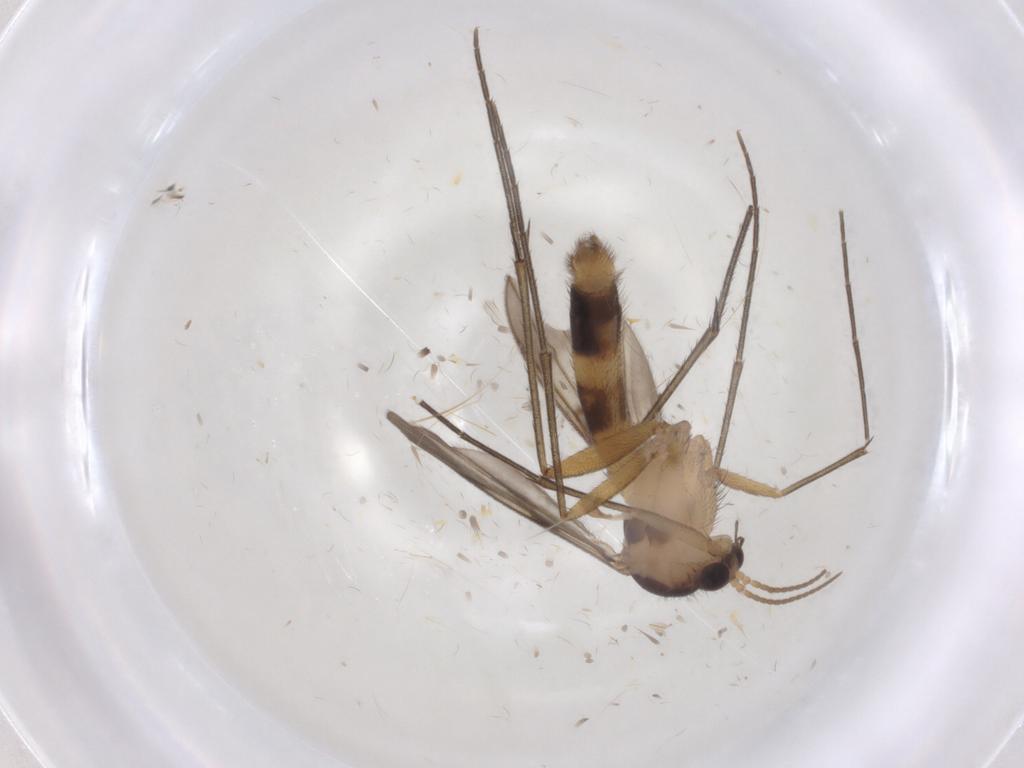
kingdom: Animalia
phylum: Arthropoda
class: Insecta
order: Diptera
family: Mycetophilidae
